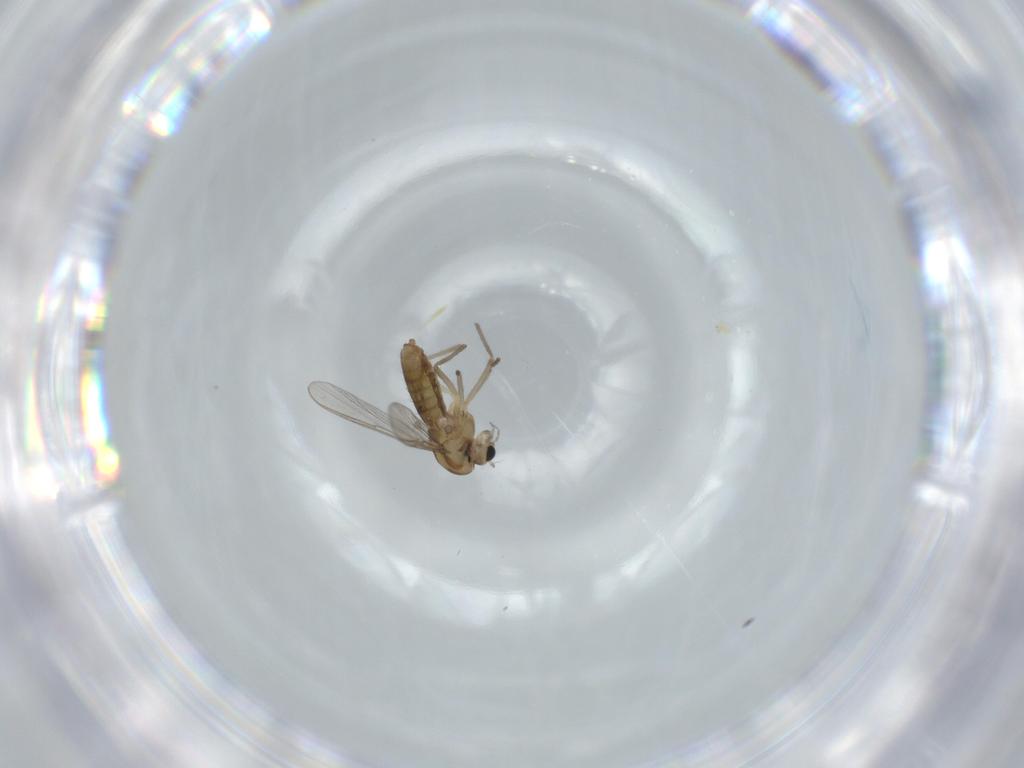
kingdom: Animalia
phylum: Arthropoda
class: Insecta
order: Diptera
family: Chironomidae
